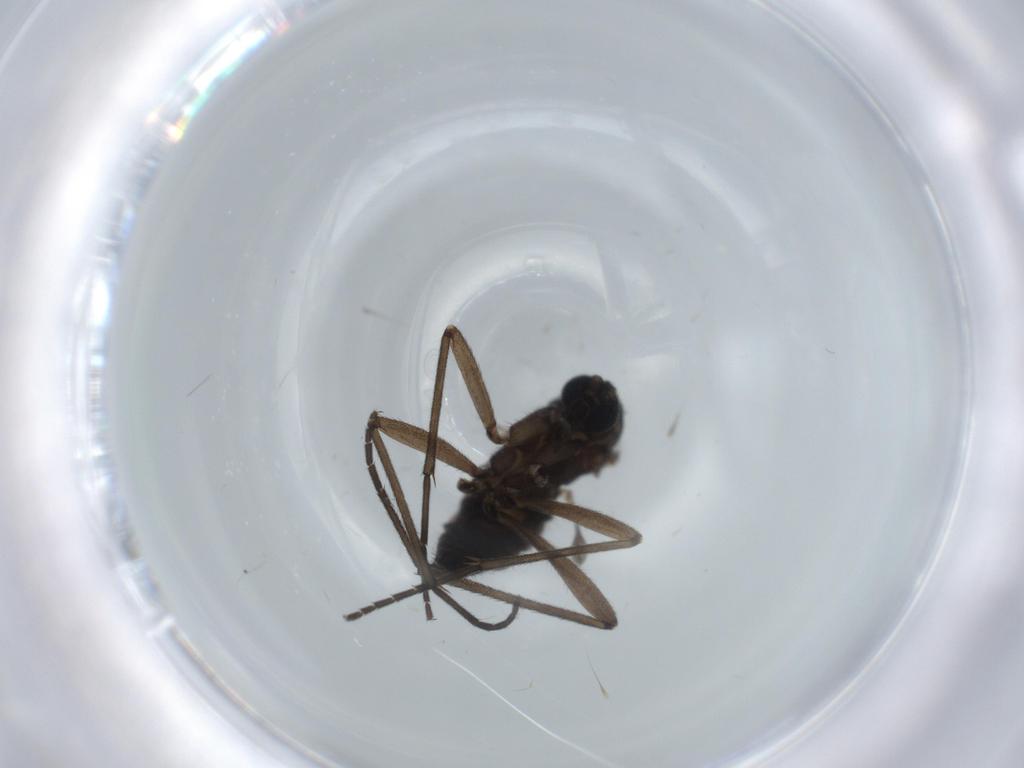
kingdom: Animalia
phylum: Arthropoda
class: Insecta
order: Diptera
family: Sciaridae
